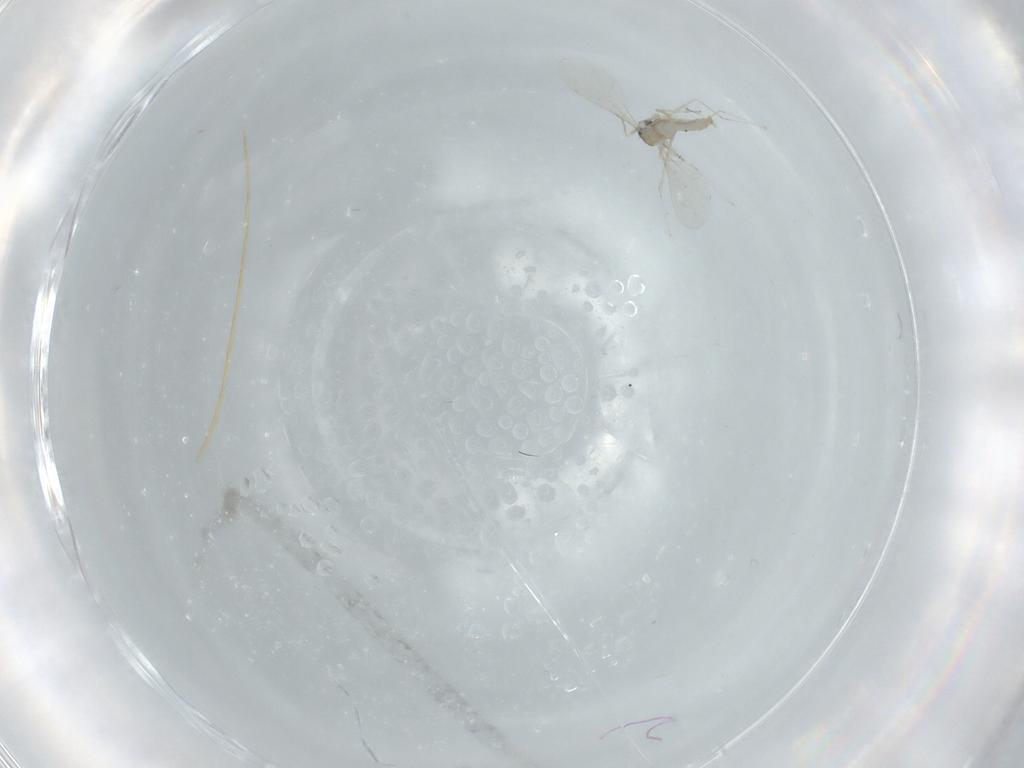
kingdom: Animalia
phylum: Arthropoda
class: Insecta
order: Diptera
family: Cecidomyiidae
